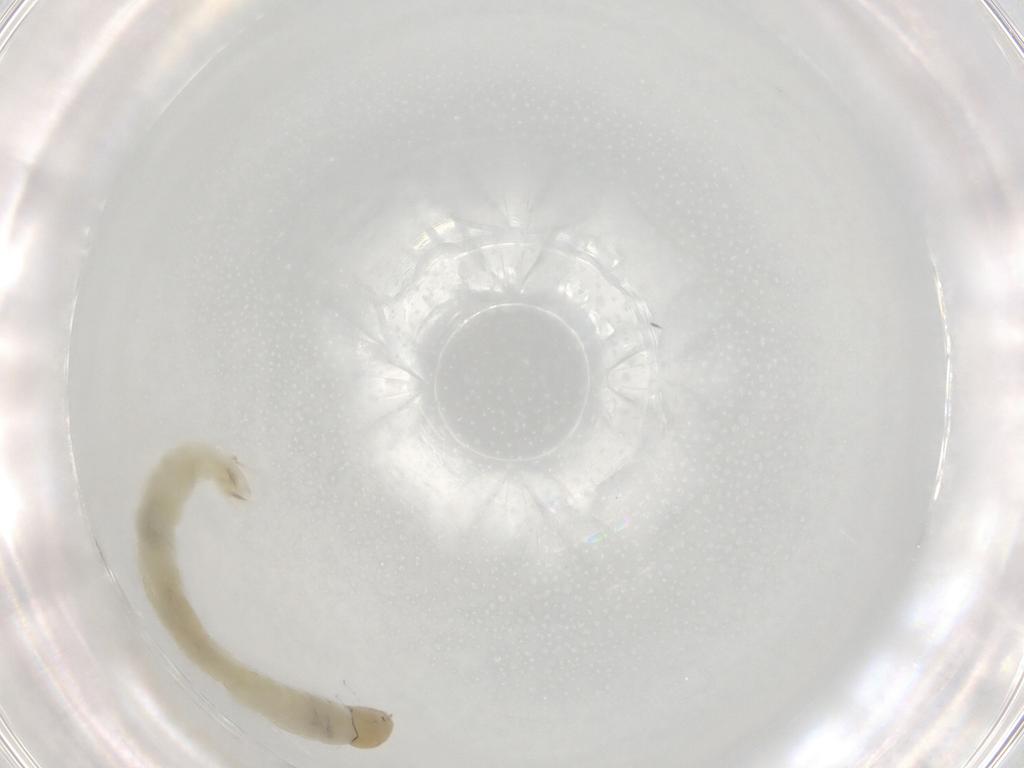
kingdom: Animalia
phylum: Arthropoda
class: Insecta
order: Diptera
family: Chironomidae
